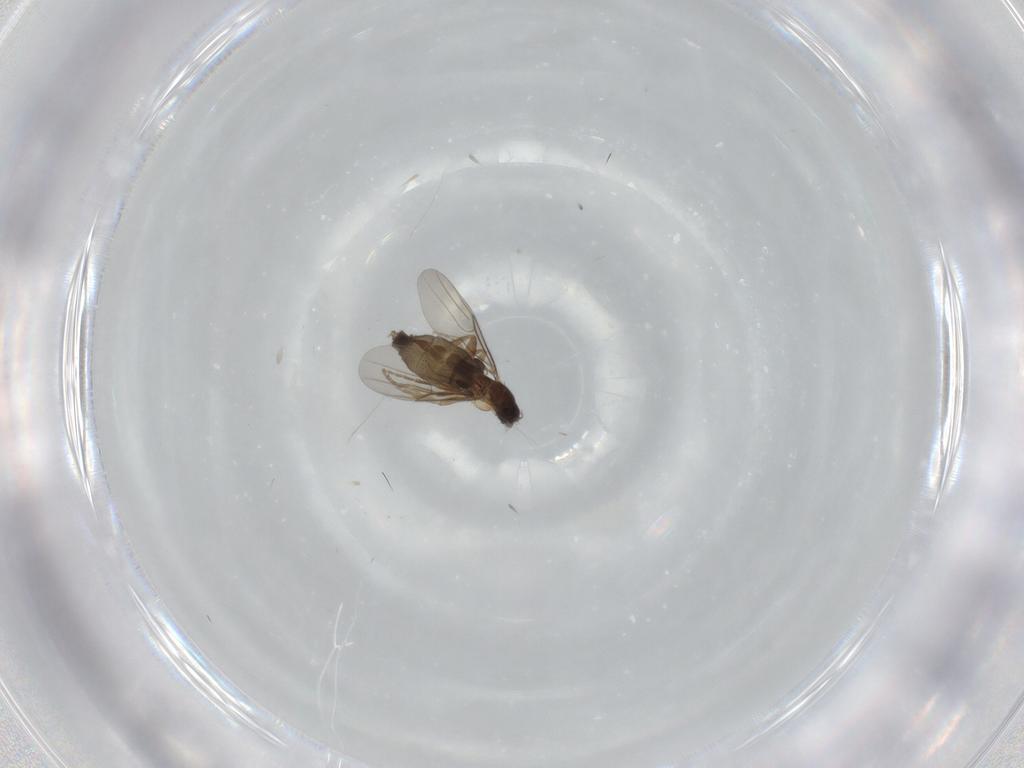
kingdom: Animalia
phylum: Arthropoda
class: Insecta
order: Diptera
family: Phoridae
